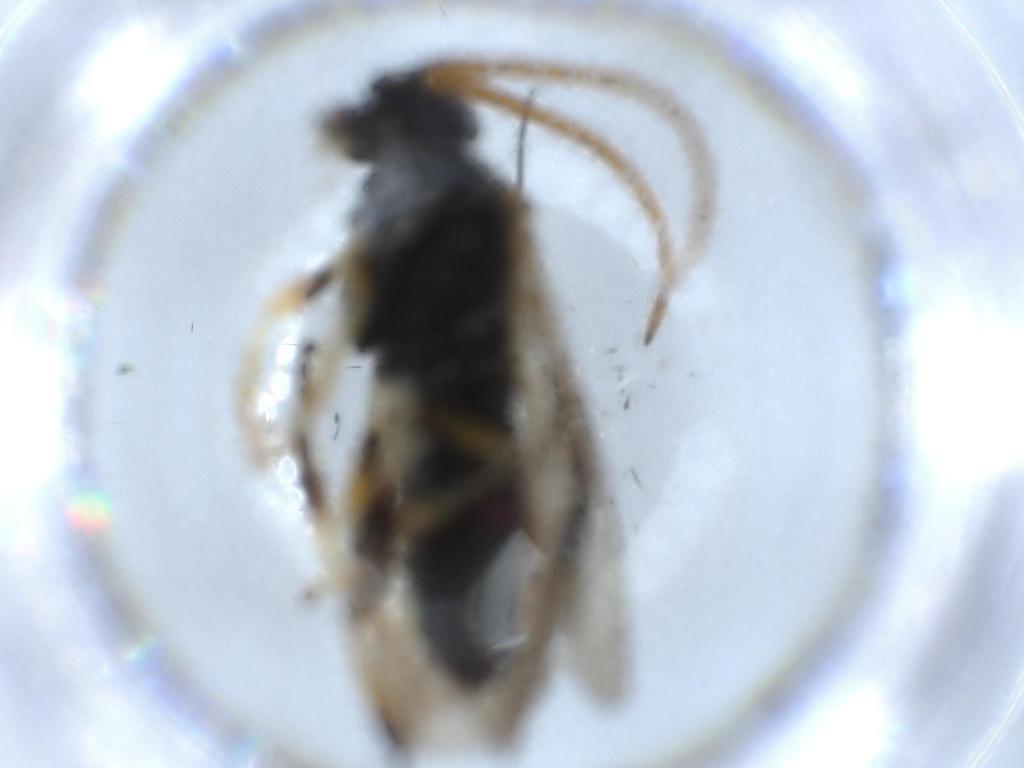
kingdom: Animalia
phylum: Arthropoda
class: Insecta
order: Hymenoptera
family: Tenthredinidae
